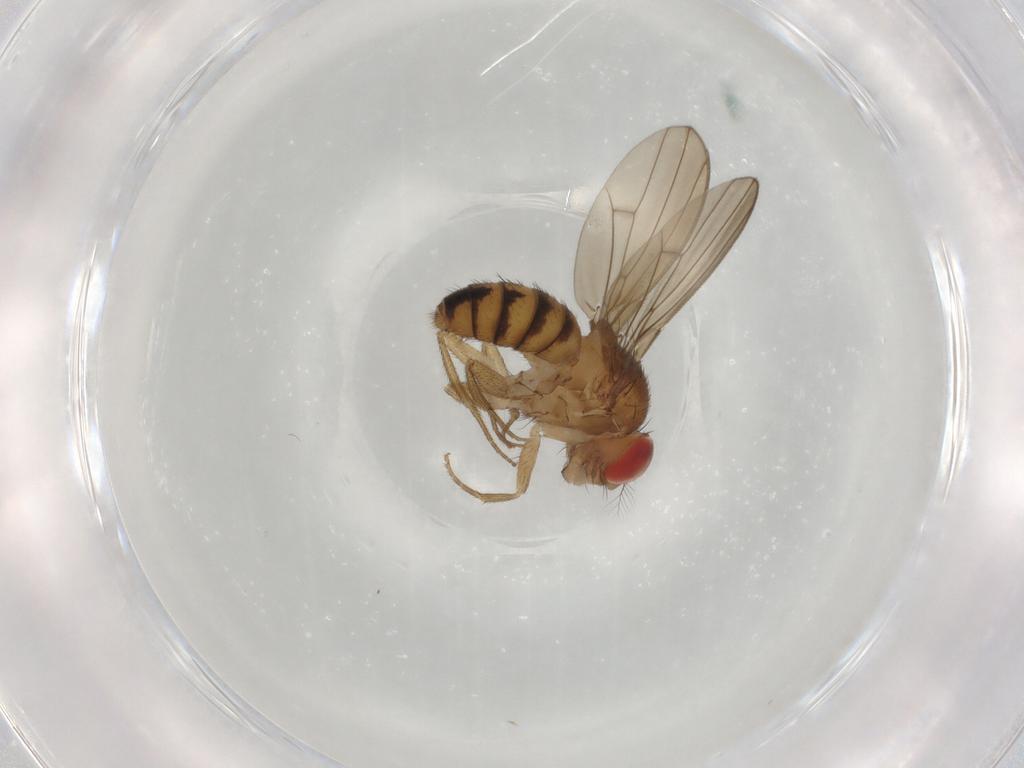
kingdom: Animalia
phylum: Arthropoda
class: Insecta
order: Diptera
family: Drosophilidae
